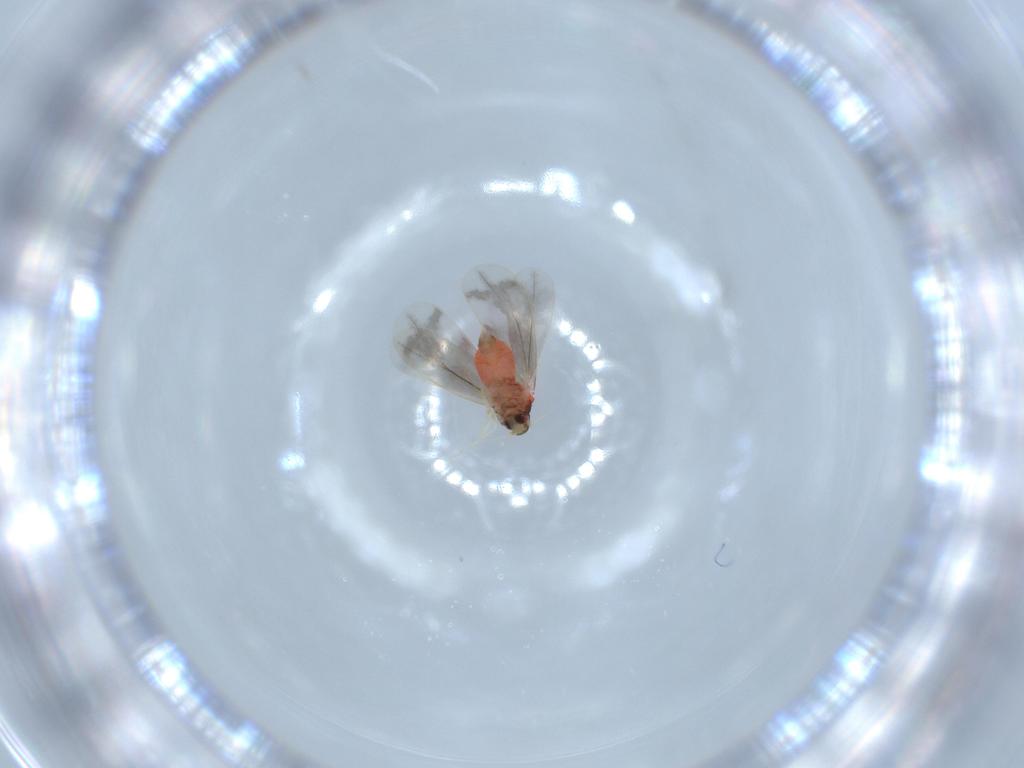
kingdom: Animalia
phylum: Arthropoda
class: Insecta
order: Hemiptera
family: Aleyrodidae
